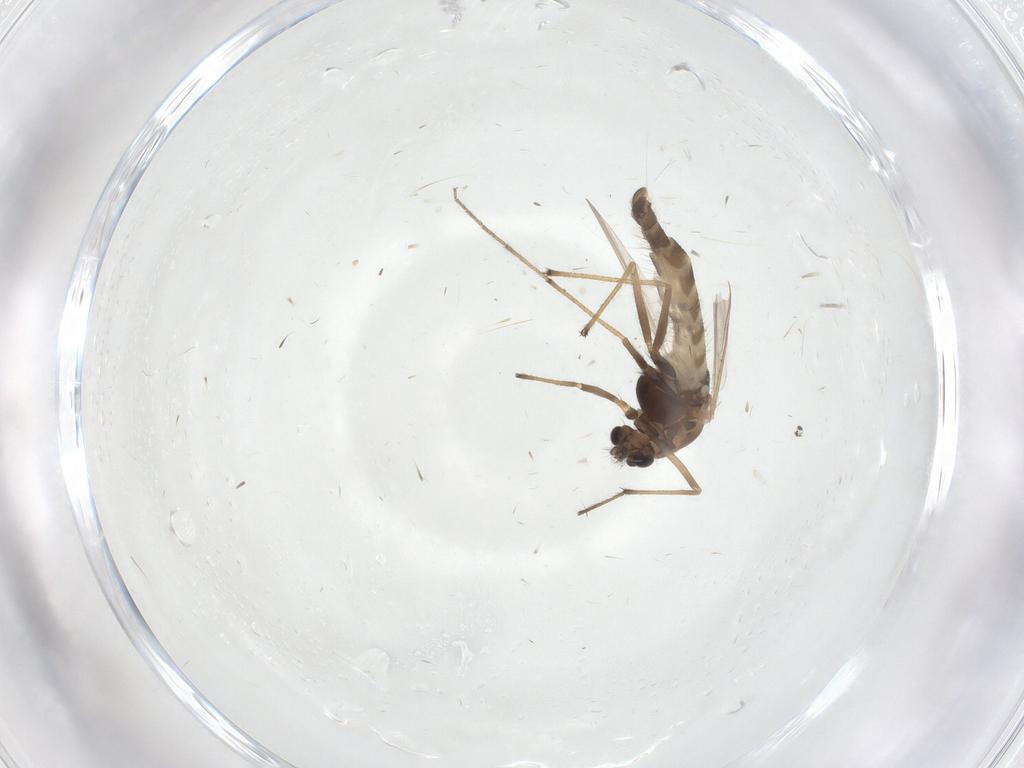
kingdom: Animalia
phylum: Arthropoda
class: Insecta
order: Diptera
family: Chironomidae
